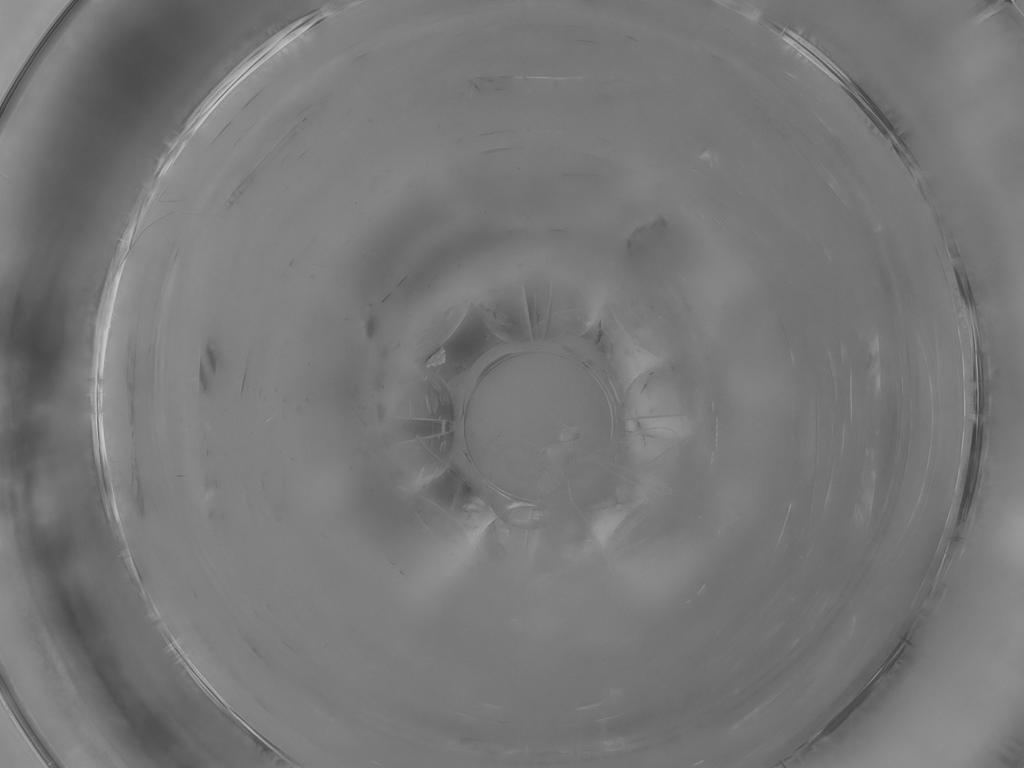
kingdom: Animalia
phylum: Arthropoda
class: Insecta
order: Diptera
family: Cecidomyiidae
